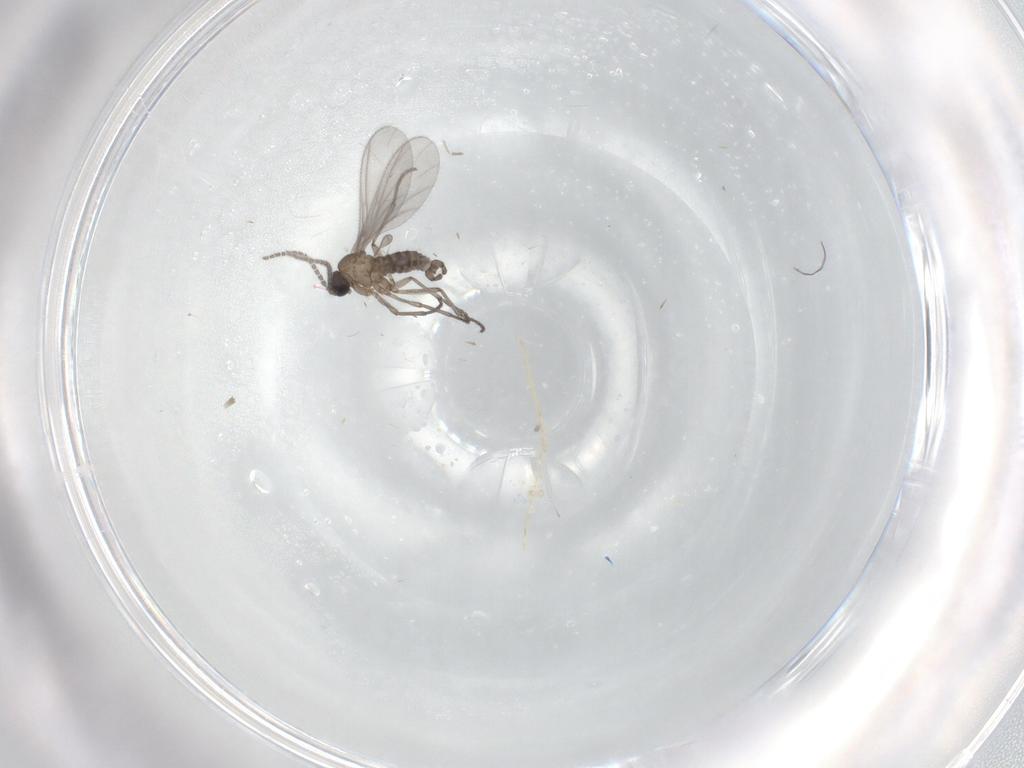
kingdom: Animalia
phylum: Arthropoda
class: Insecta
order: Diptera
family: Sciaridae
